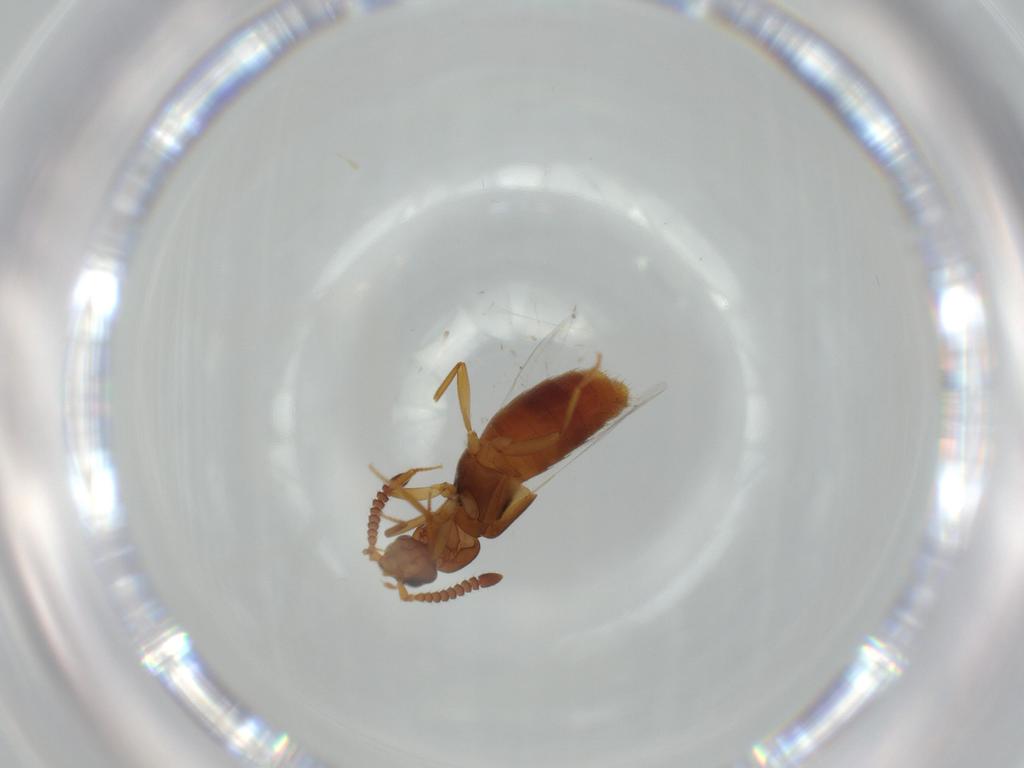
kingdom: Animalia
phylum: Arthropoda
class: Insecta
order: Coleoptera
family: Staphylinidae
